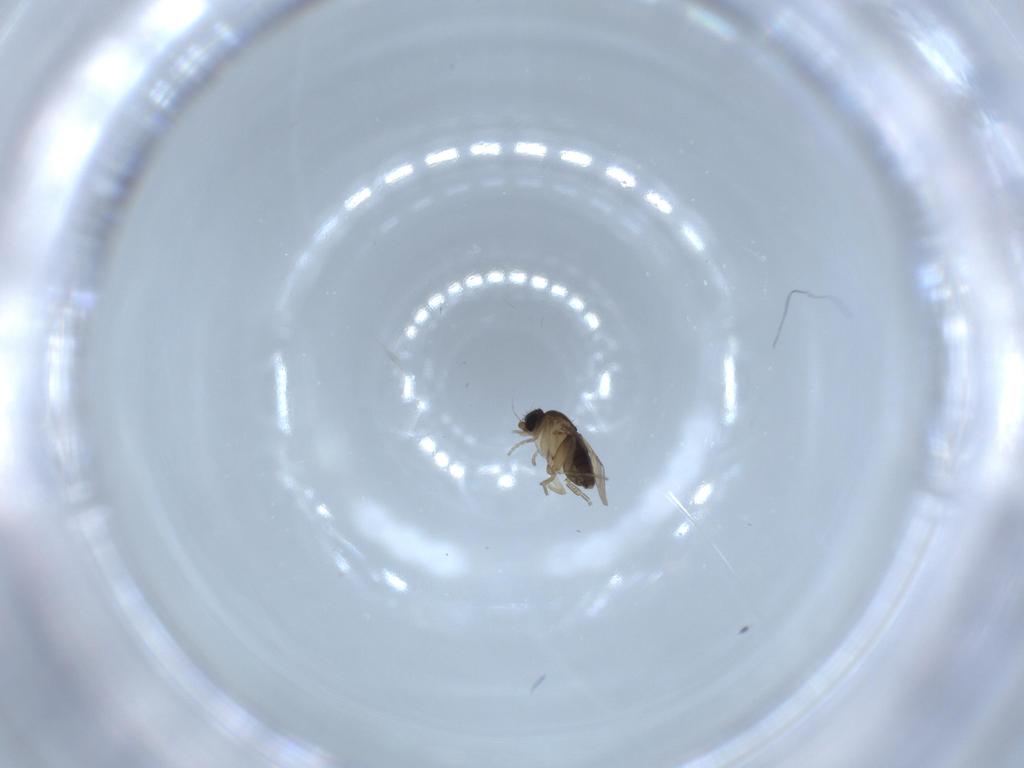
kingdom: Animalia
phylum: Arthropoda
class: Insecta
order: Diptera
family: Phoridae
